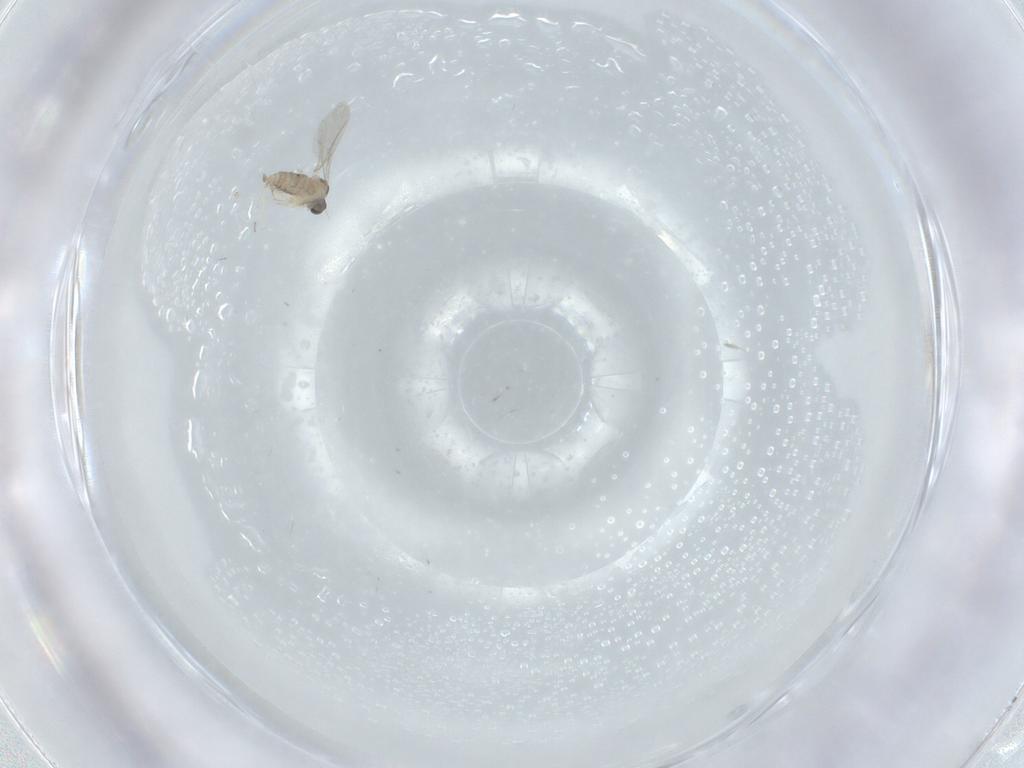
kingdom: Animalia
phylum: Arthropoda
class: Insecta
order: Diptera
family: Cecidomyiidae
